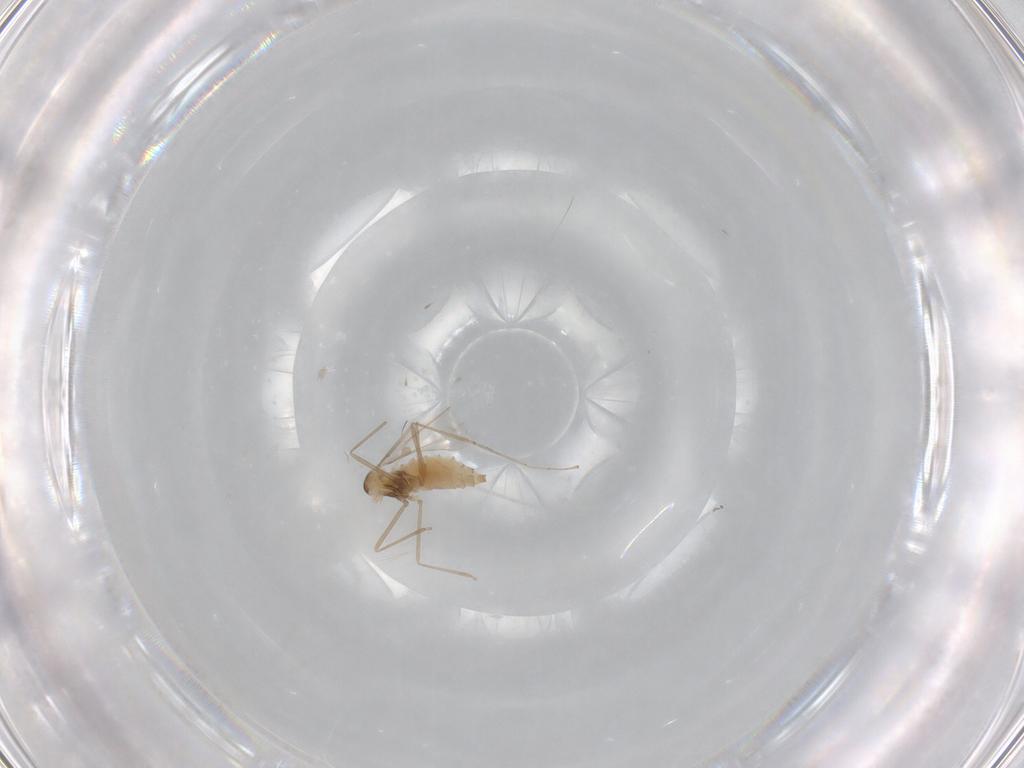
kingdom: Animalia
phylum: Arthropoda
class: Insecta
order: Diptera
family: Cecidomyiidae
